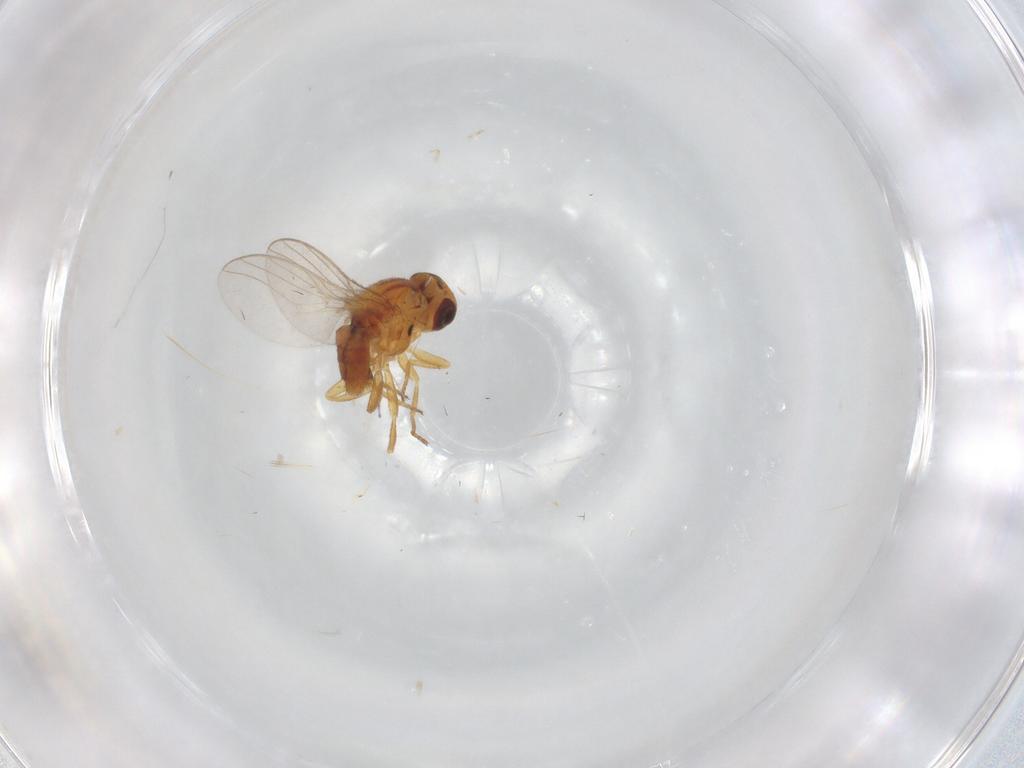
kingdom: Animalia
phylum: Arthropoda
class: Insecta
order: Diptera
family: Chloropidae
